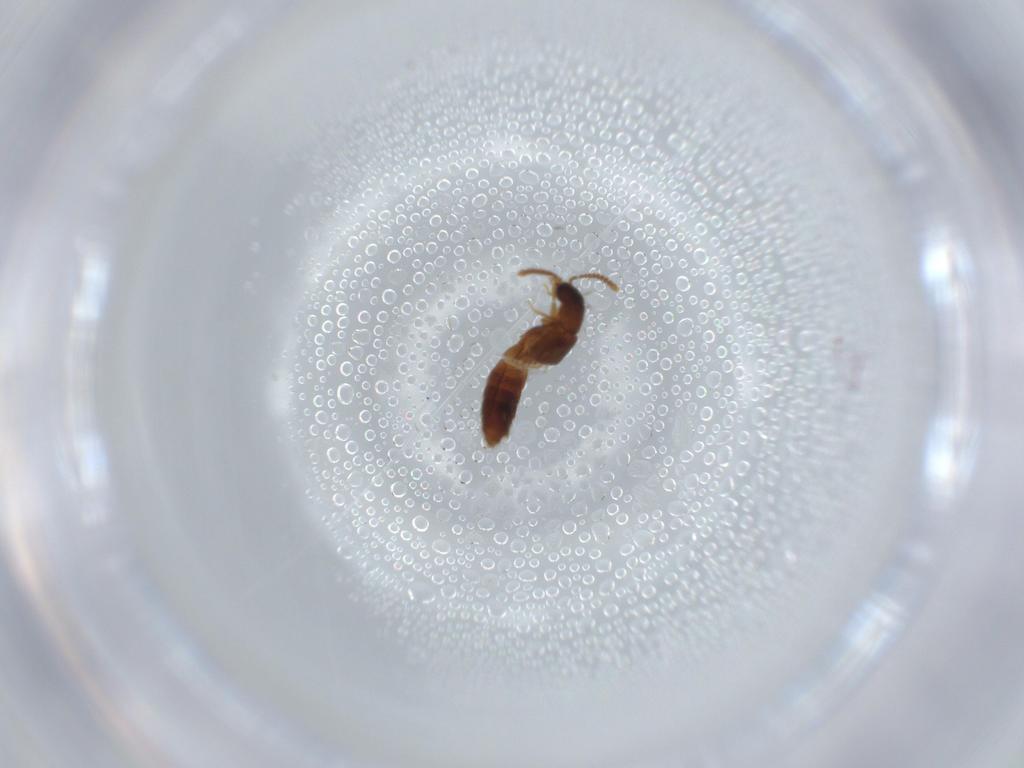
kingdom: Animalia
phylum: Arthropoda
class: Insecta
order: Coleoptera
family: Staphylinidae
